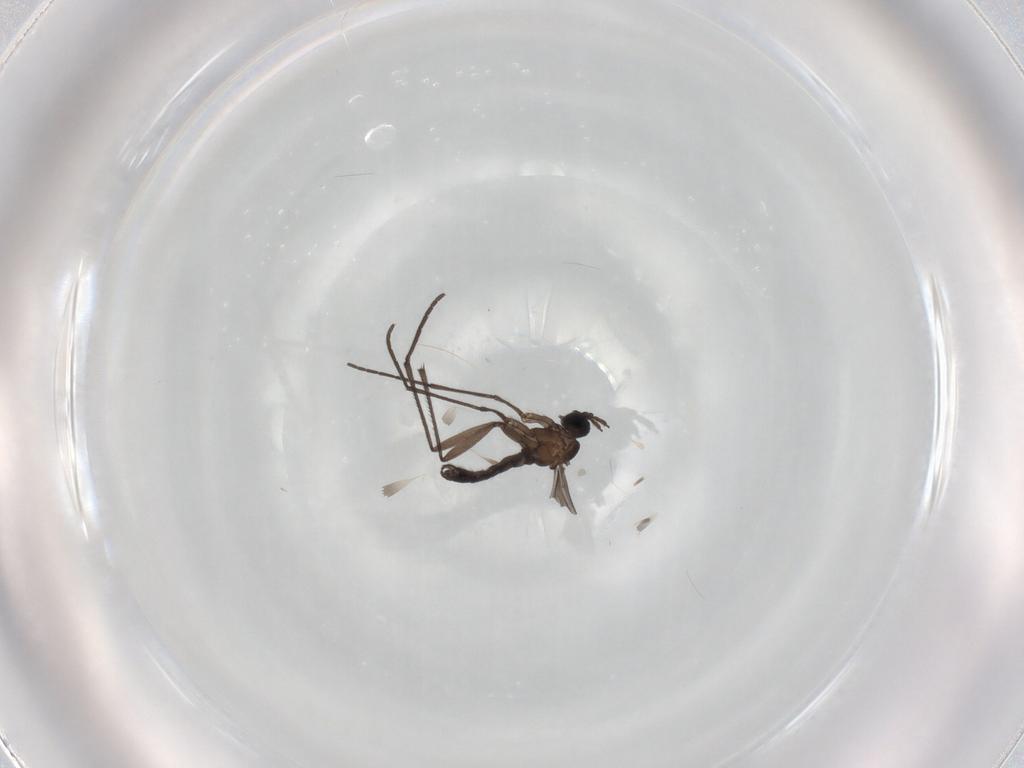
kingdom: Animalia
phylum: Arthropoda
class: Insecta
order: Diptera
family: Sciaridae
